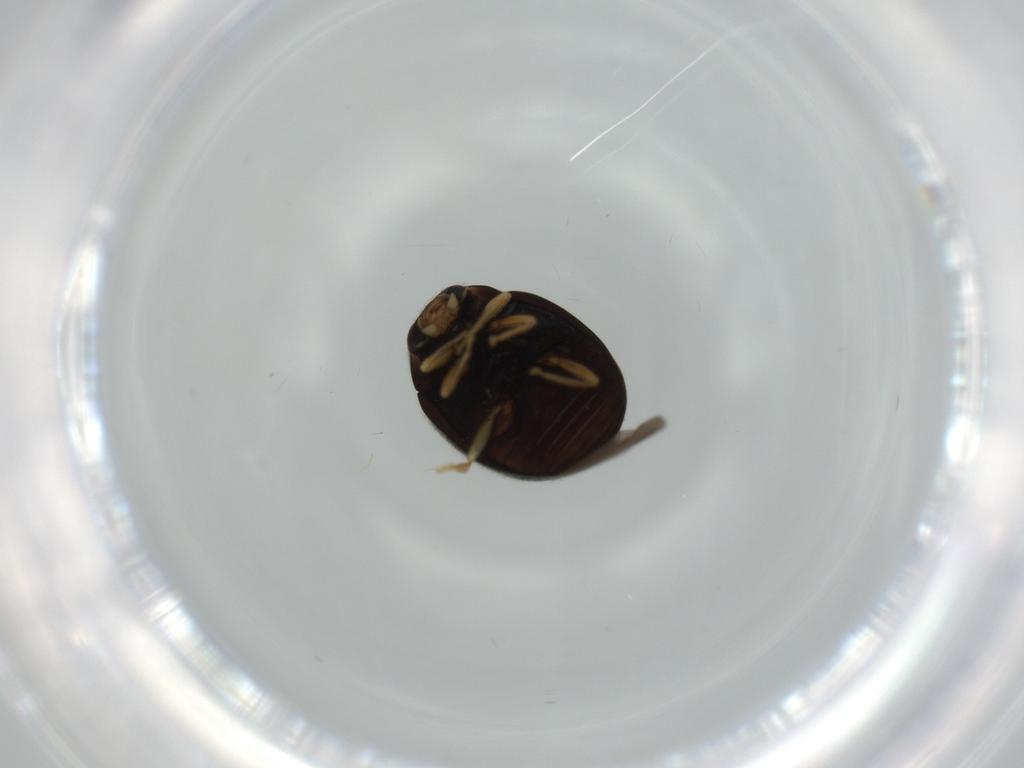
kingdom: Animalia
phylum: Arthropoda
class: Insecta
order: Coleoptera
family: Coccinellidae
